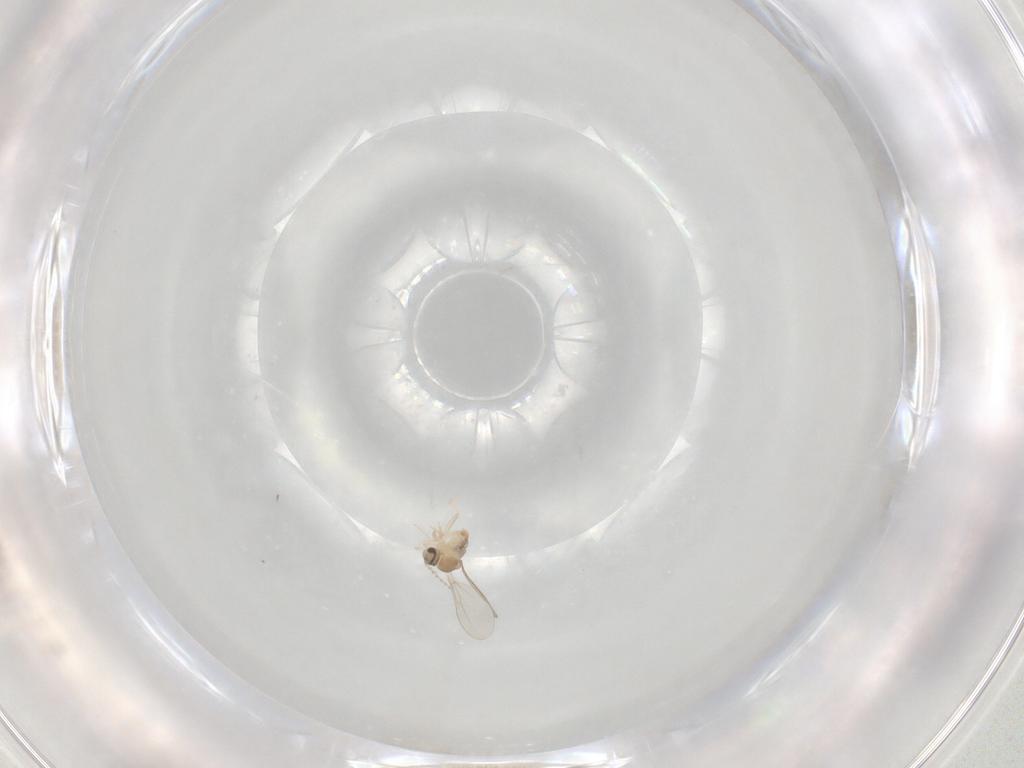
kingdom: Animalia
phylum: Arthropoda
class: Insecta
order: Diptera
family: Cecidomyiidae
